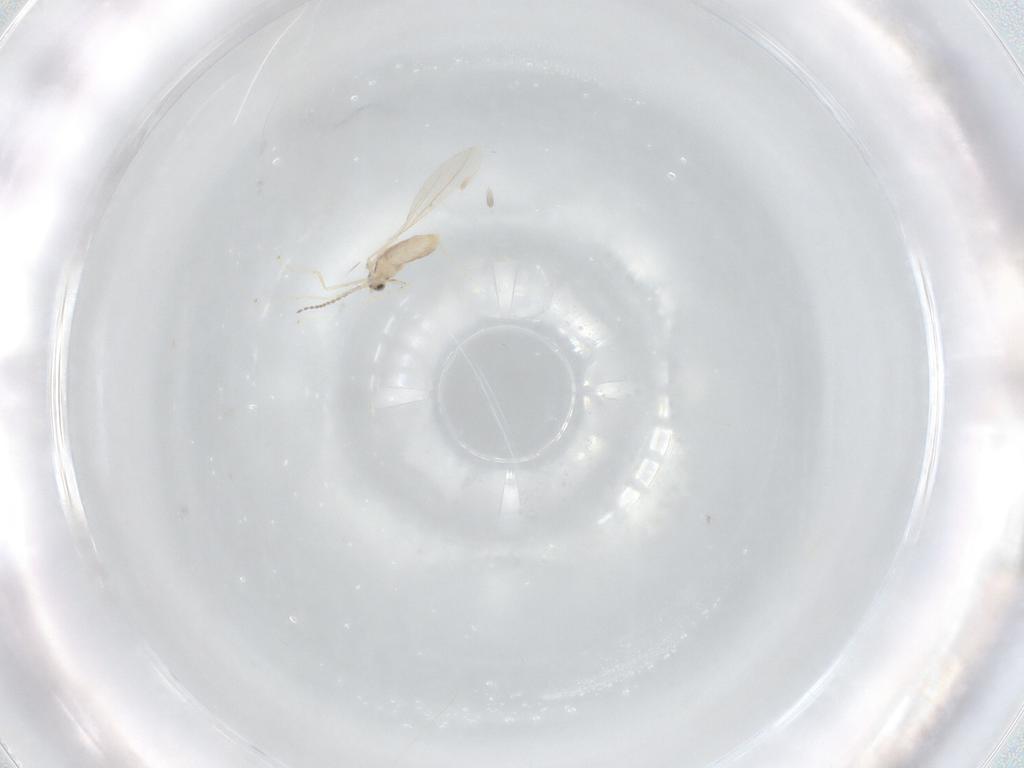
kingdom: Animalia
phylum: Arthropoda
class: Insecta
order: Diptera
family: Cecidomyiidae
